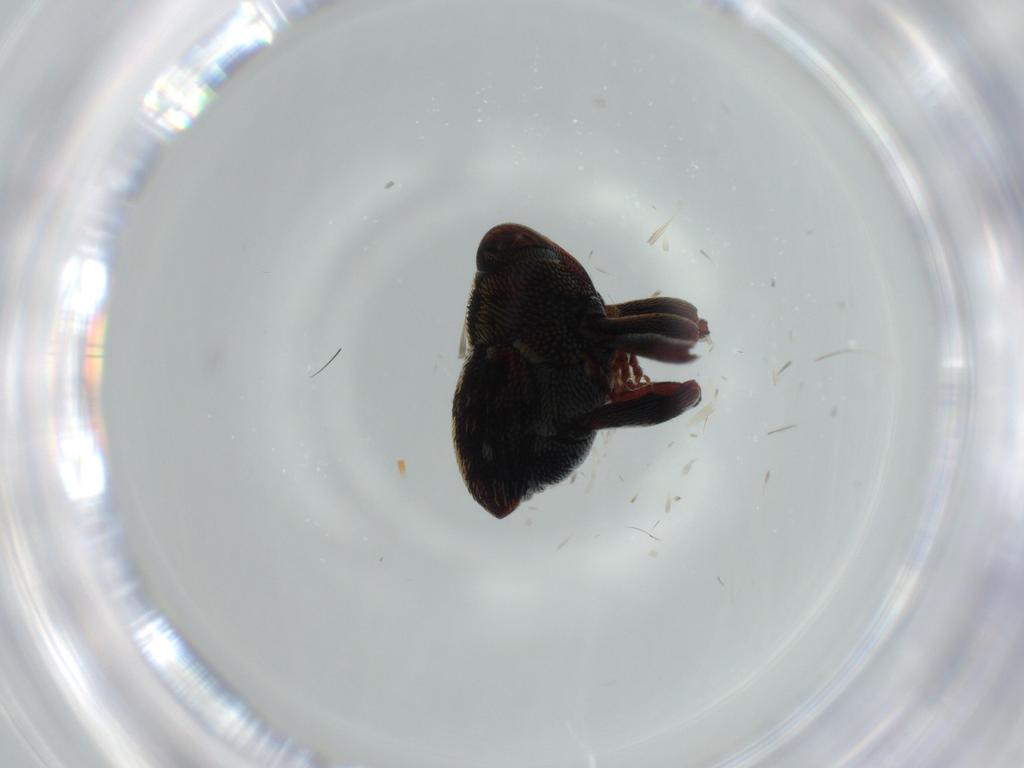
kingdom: Animalia
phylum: Arthropoda
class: Insecta
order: Coleoptera
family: Curculionidae
